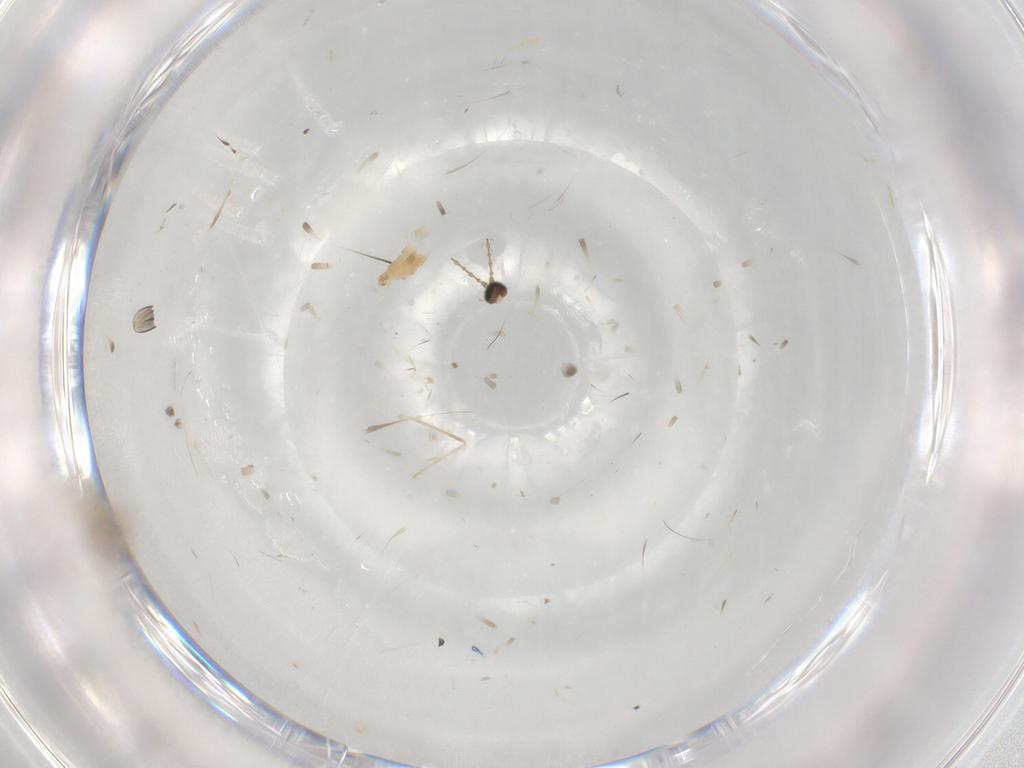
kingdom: Animalia
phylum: Arthropoda
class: Insecta
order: Diptera
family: Cecidomyiidae
